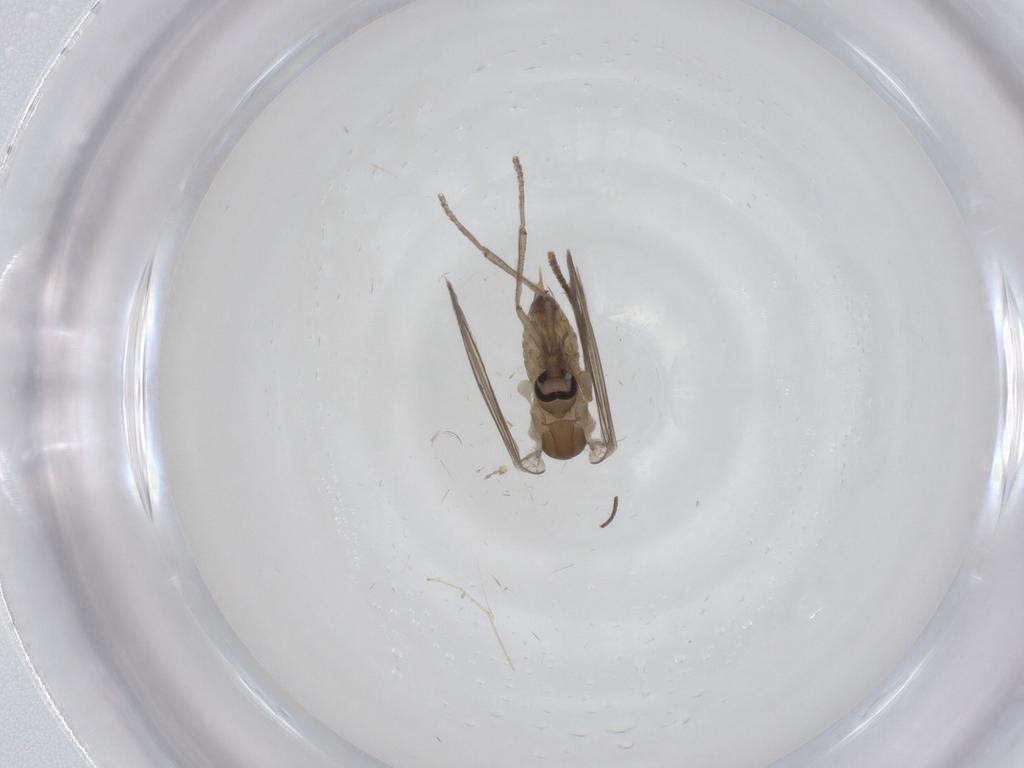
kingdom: Animalia
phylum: Arthropoda
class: Insecta
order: Diptera
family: Psychodidae
